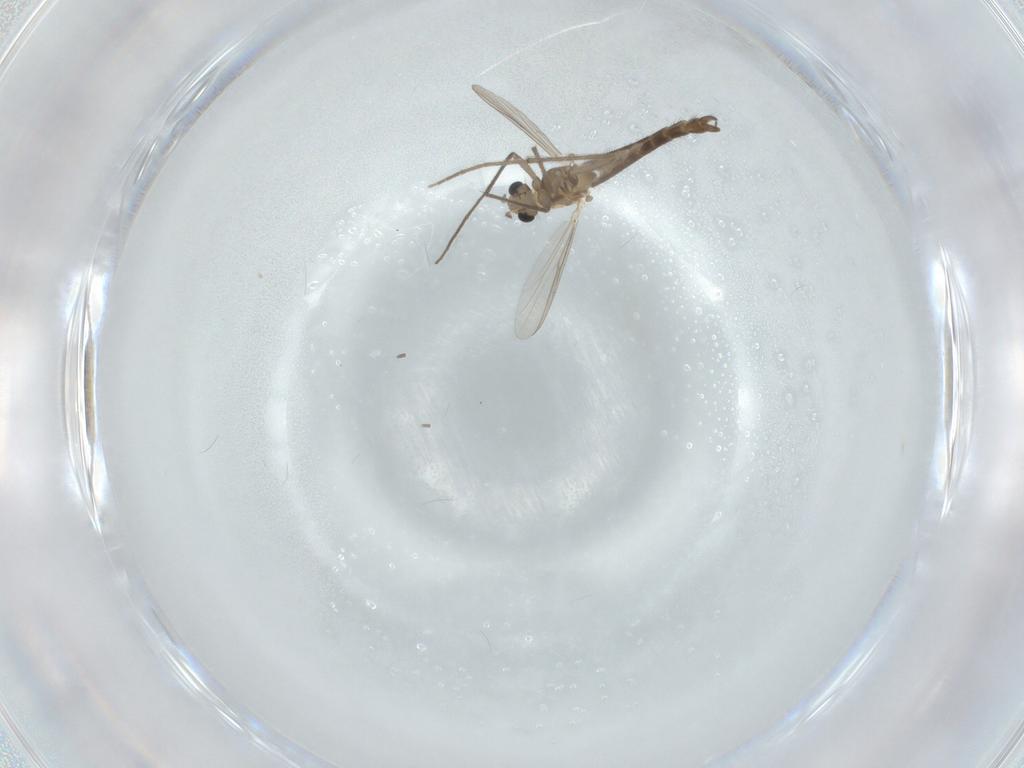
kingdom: Animalia
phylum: Arthropoda
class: Insecta
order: Diptera
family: Chironomidae
